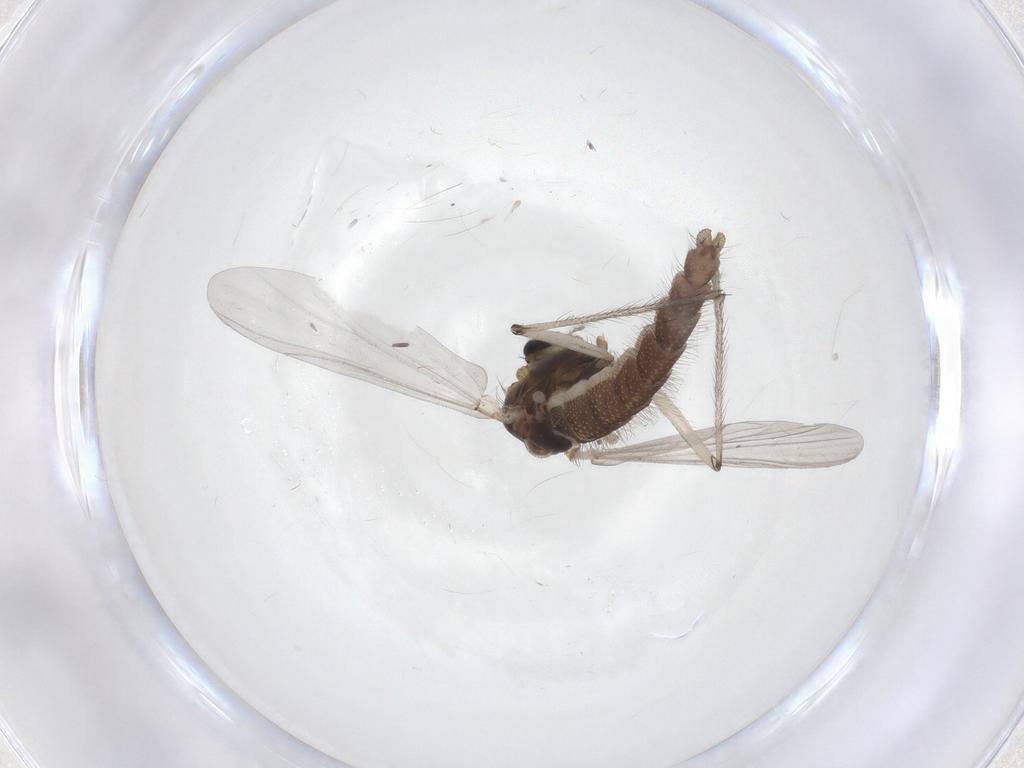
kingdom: Animalia
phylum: Arthropoda
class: Insecta
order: Diptera
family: Chironomidae
